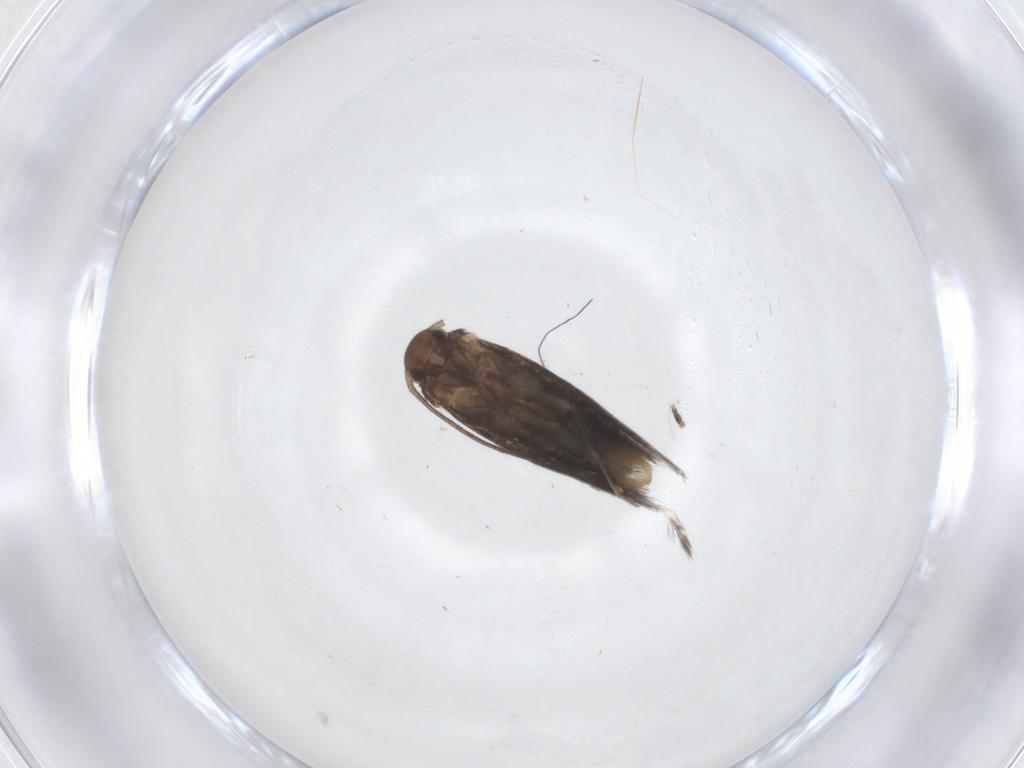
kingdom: Animalia
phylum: Arthropoda
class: Insecta
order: Lepidoptera
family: Elachistidae
